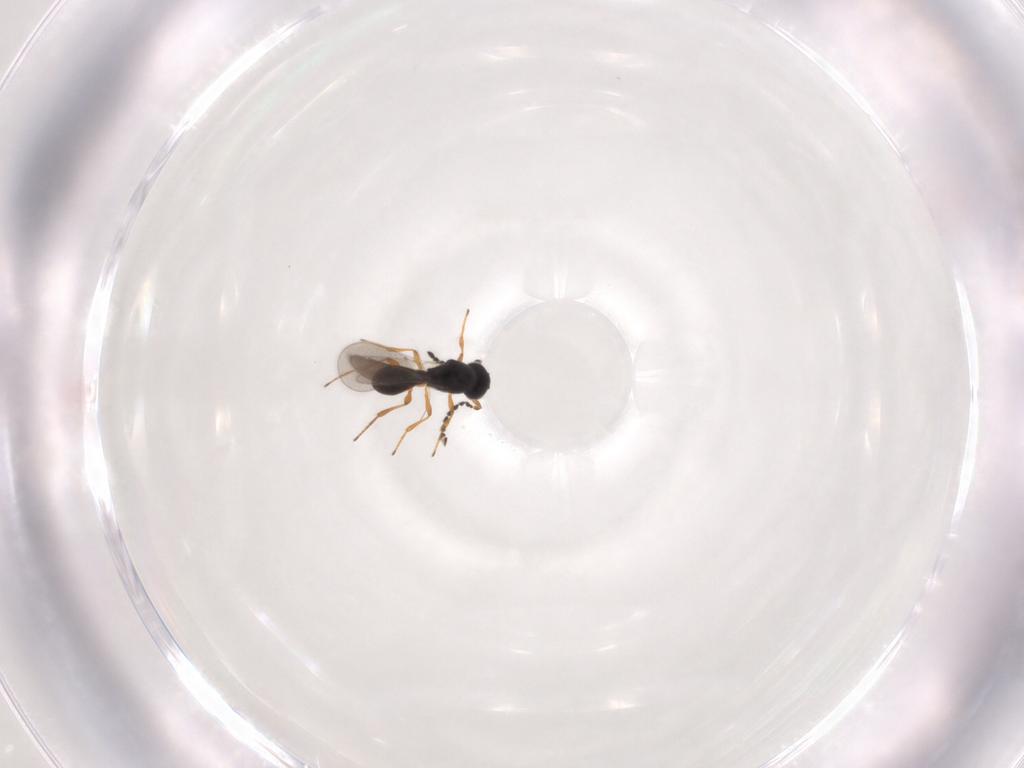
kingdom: Animalia
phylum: Arthropoda
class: Insecta
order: Hymenoptera
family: Platygastridae
